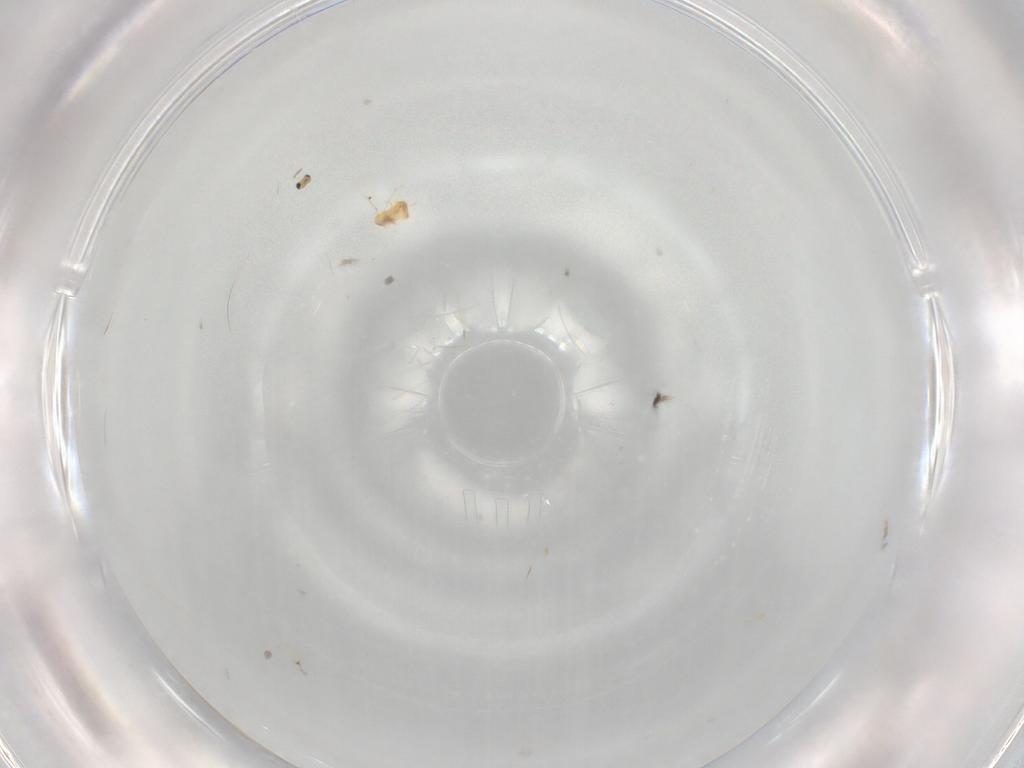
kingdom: Animalia
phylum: Arthropoda
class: Insecta
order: Hymenoptera
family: Trichogrammatidae
